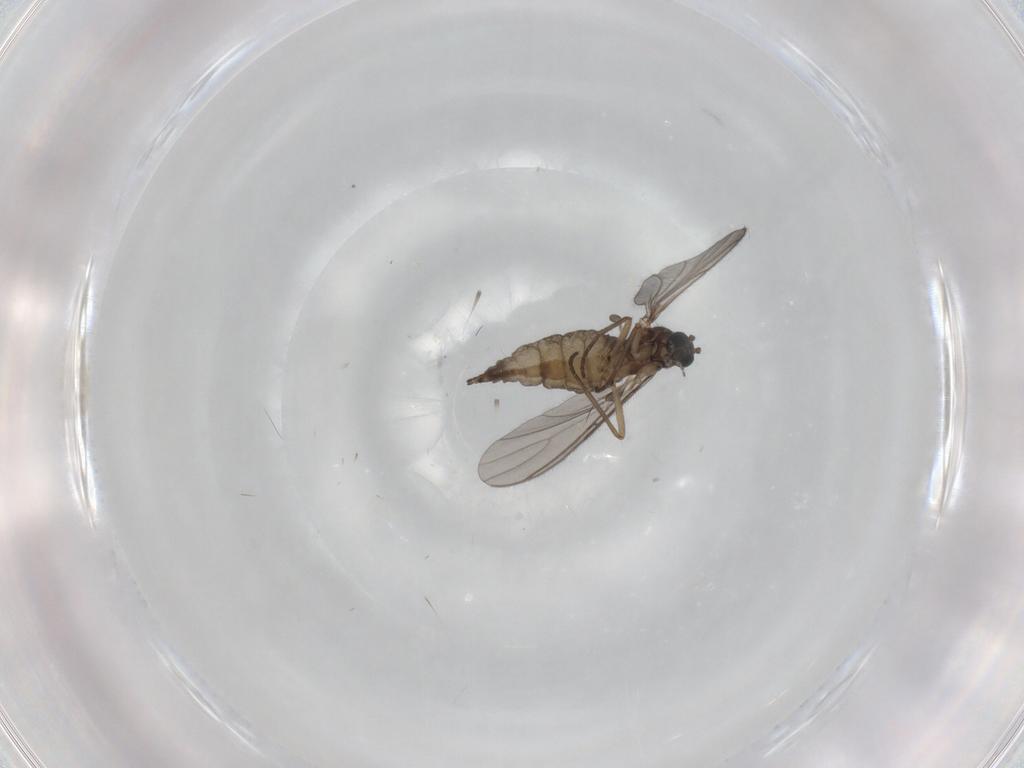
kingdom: Animalia
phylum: Arthropoda
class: Insecta
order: Diptera
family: Sciaridae
